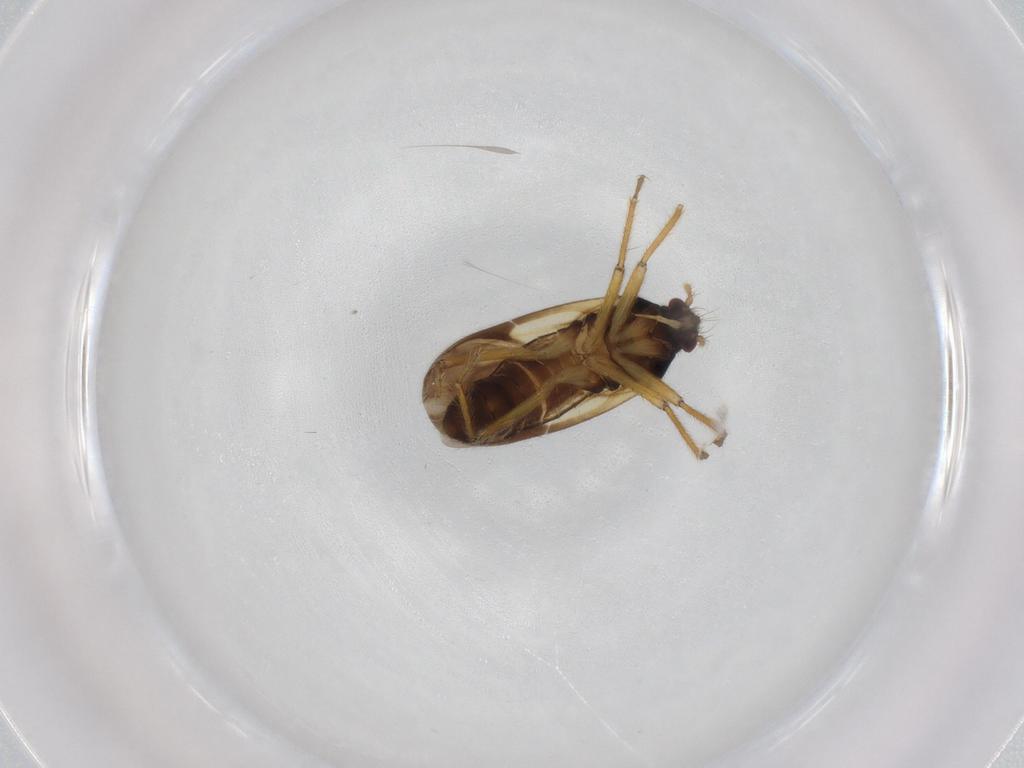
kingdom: Animalia
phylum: Arthropoda
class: Insecta
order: Hemiptera
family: Ceratocombidae
